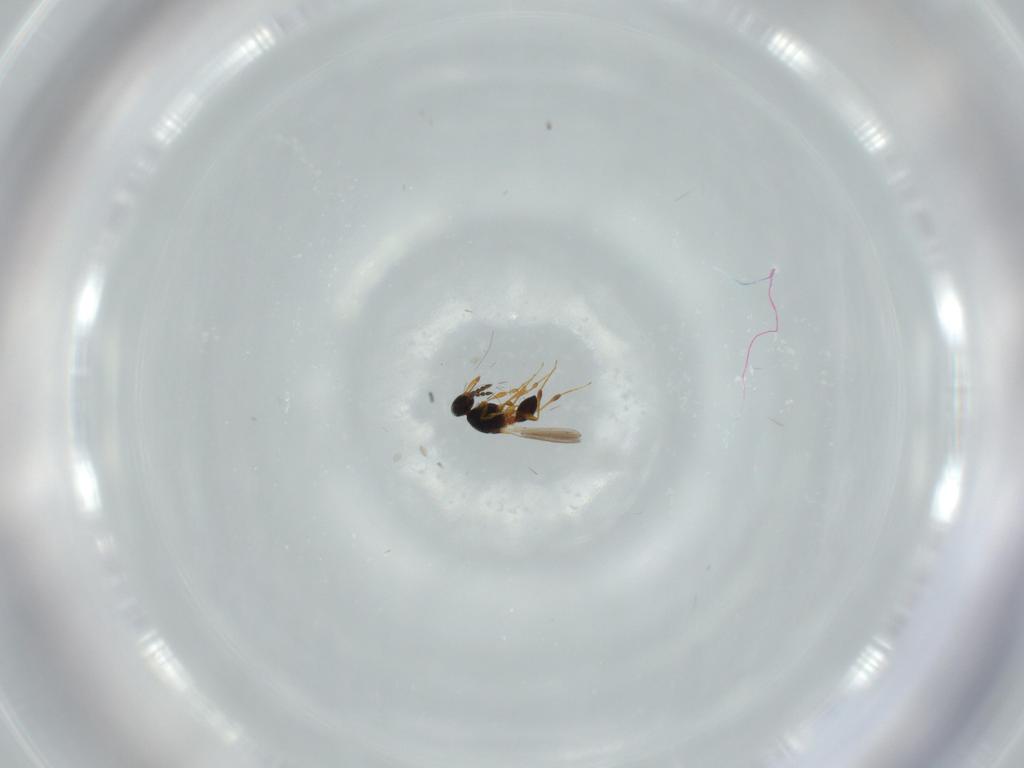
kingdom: Animalia
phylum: Arthropoda
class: Insecta
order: Hymenoptera
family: Platygastridae
